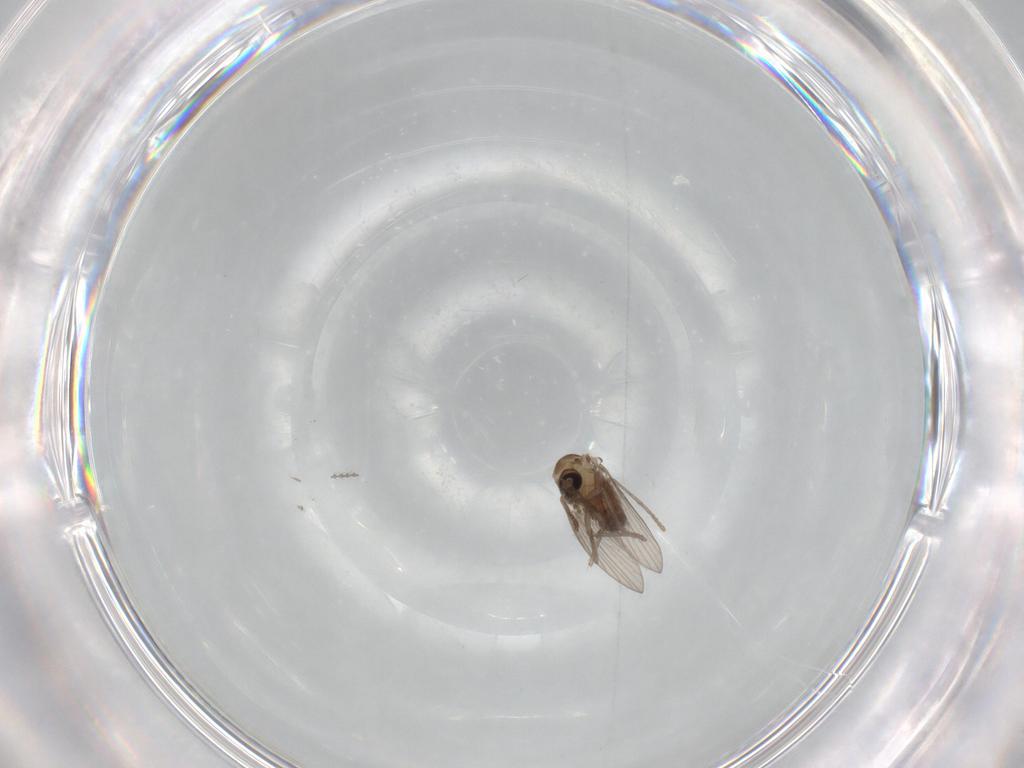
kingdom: Animalia
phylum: Arthropoda
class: Insecta
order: Diptera
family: Psychodidae
